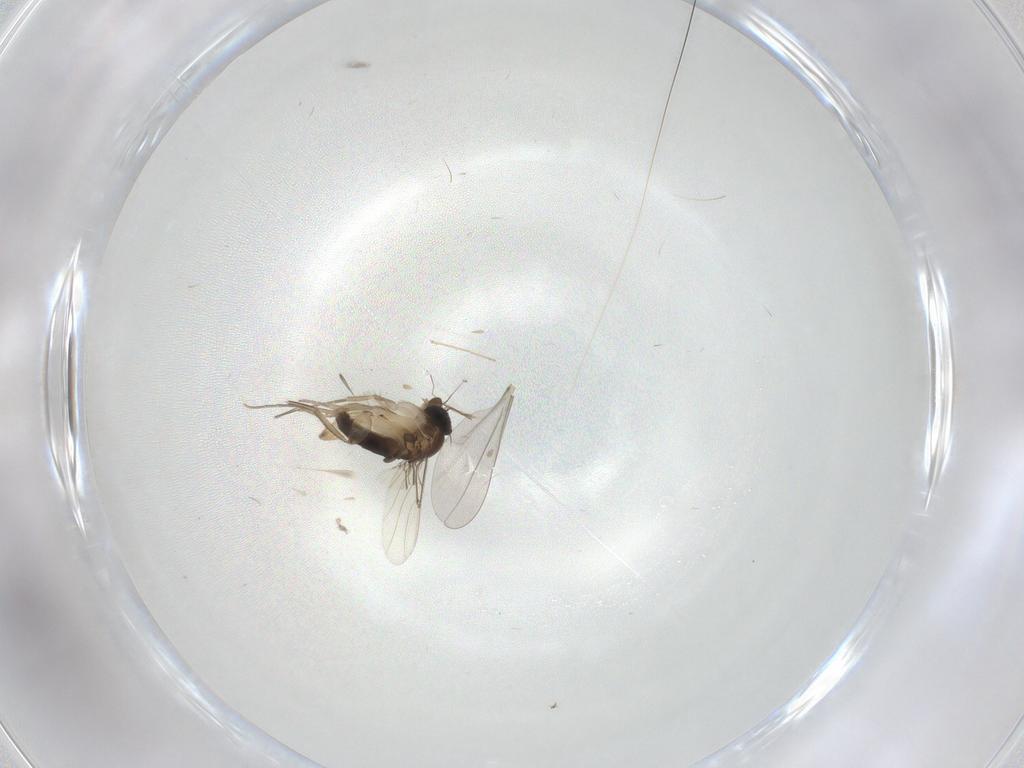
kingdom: Animalia
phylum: Arthropoda
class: Insecta
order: Diptera
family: Phoridae
